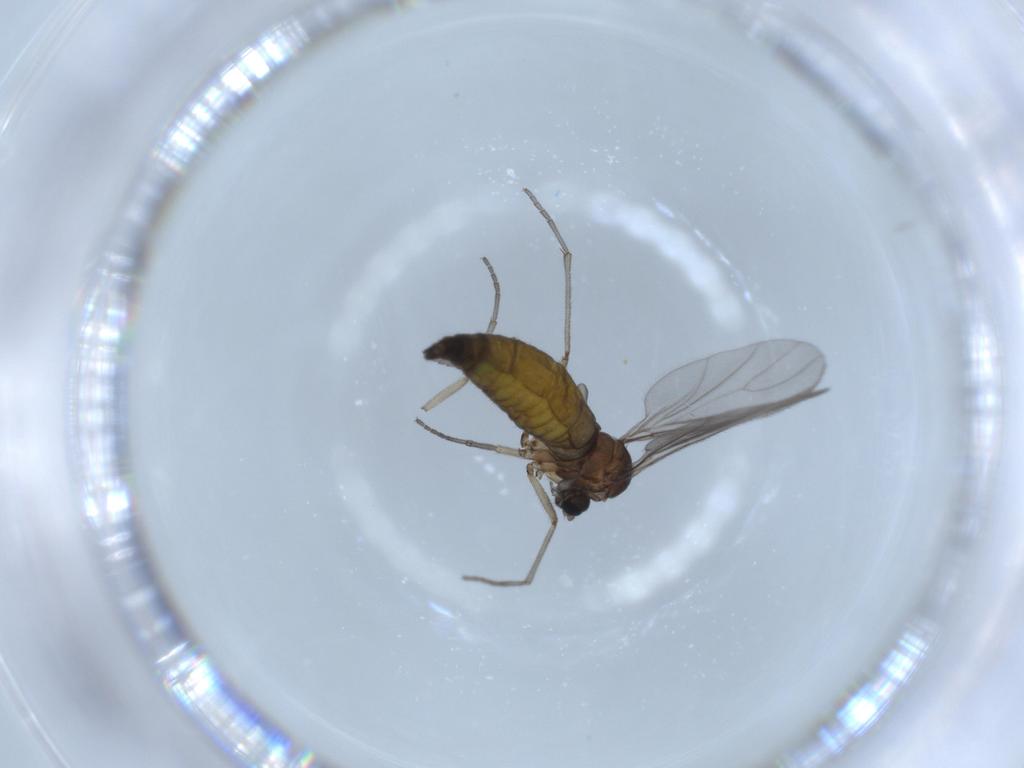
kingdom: Animalia
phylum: Arthropoda
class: Insecta
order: Diptera
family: Sciaridae
